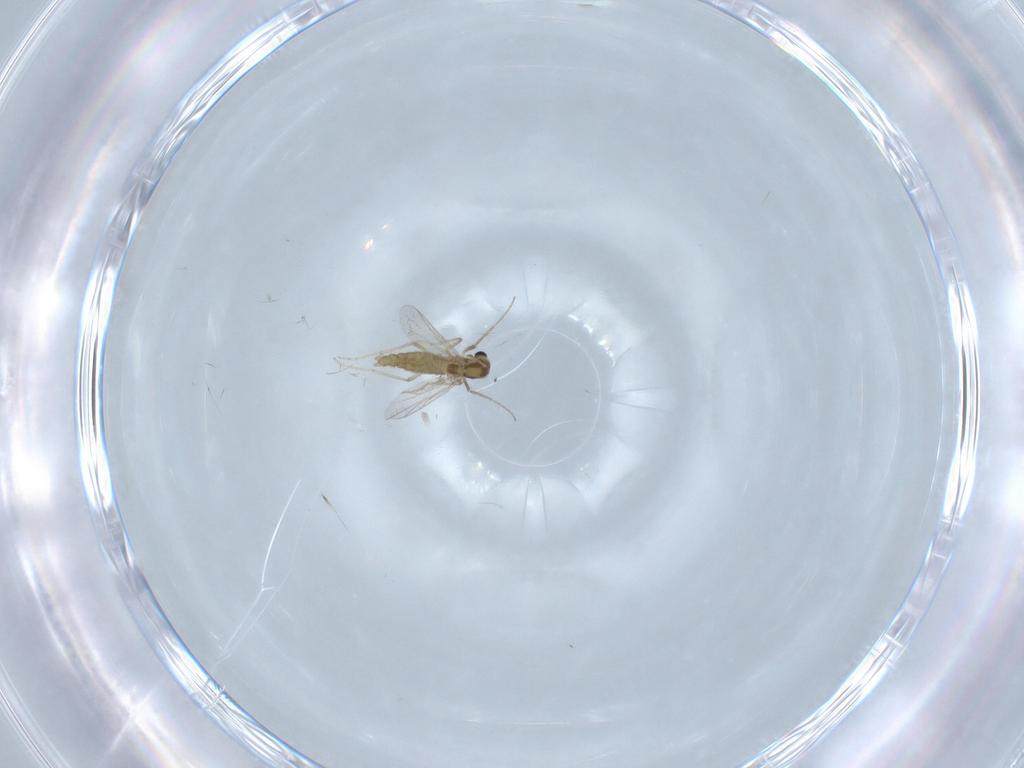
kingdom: Animalia
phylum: Arthropoda
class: Insecta
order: Diptera
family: Chironomidae
